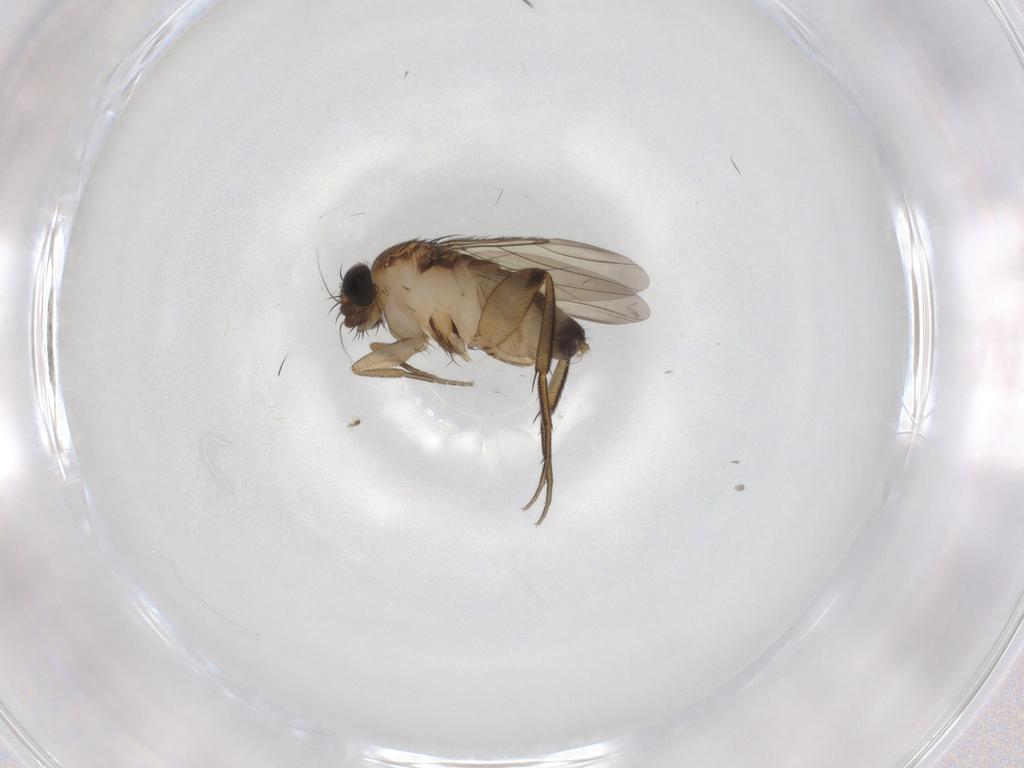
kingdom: Animalia
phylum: Arthropoda
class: Insecta
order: Diptera
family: Phoridae
